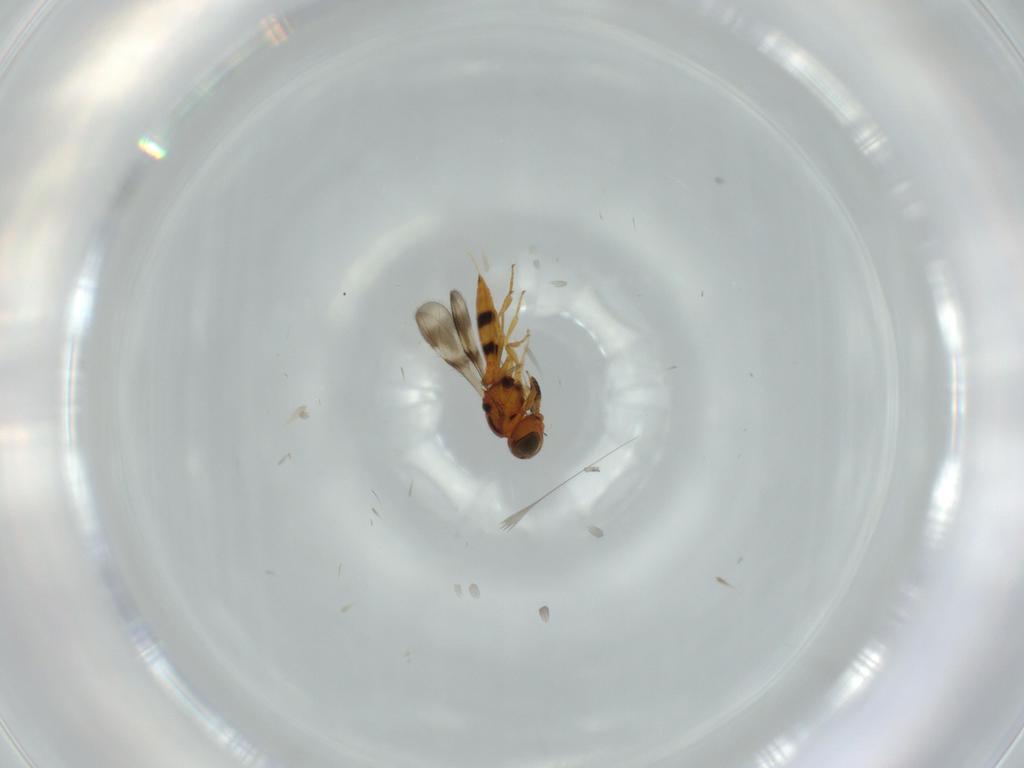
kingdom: Animalia
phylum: Arthropoda
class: Insecta
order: Hymenoptera
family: Scelionidae
